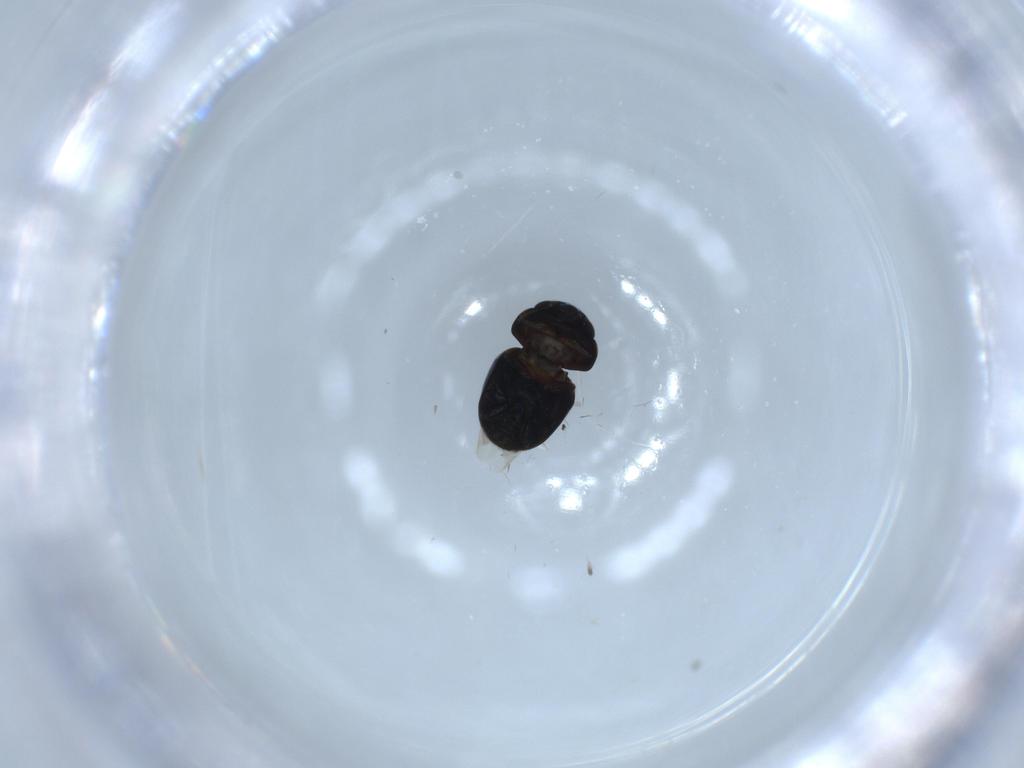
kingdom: Animalia
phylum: Arthropoda
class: Insecta
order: Coleoptera
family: Cybocephalidae
